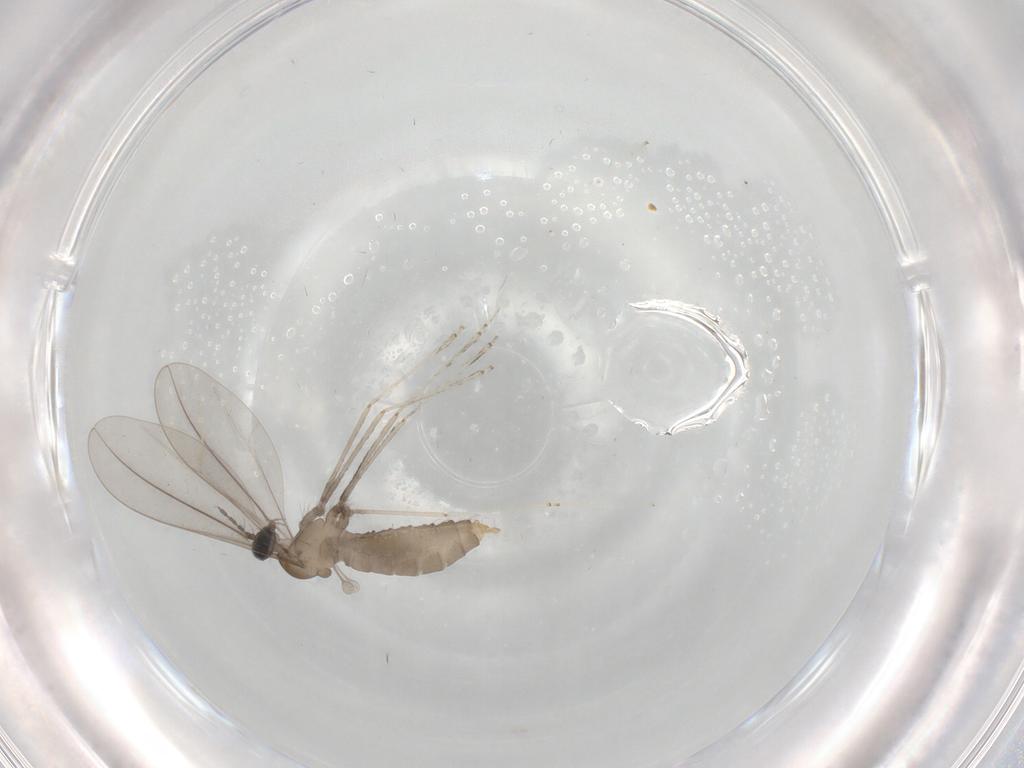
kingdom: Animalia
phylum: Arthropoda
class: Insecta
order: Diptera
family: Cecidomyiidae
